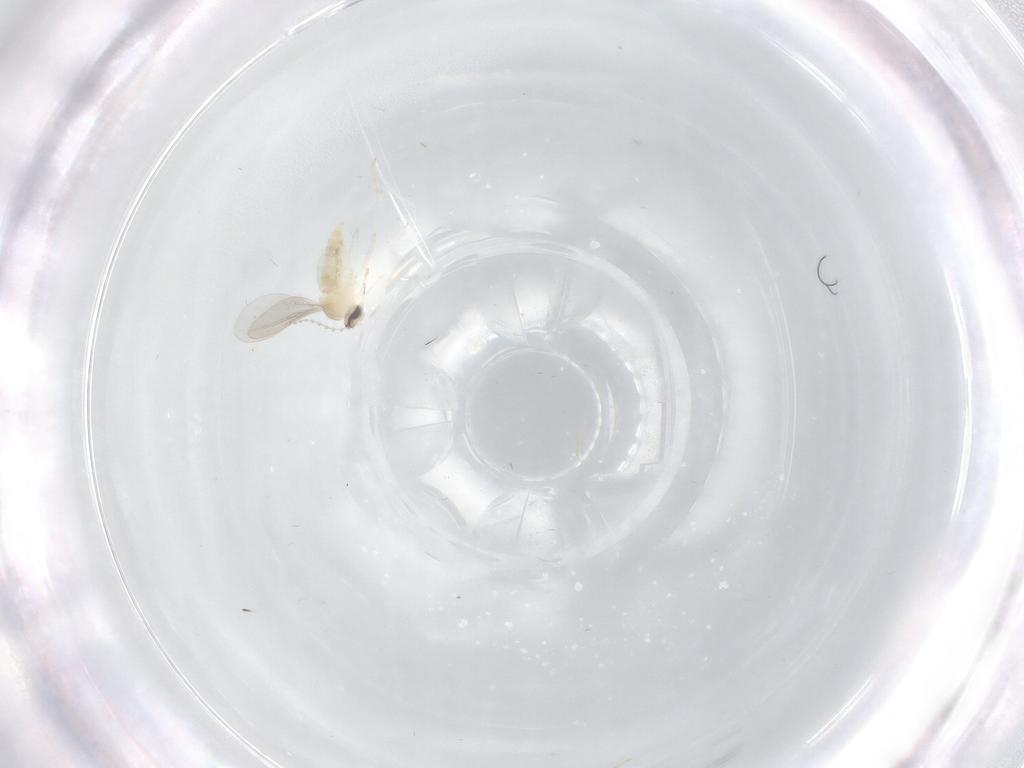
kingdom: Animalia
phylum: Arthropoda
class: Insecta
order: Diptera
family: Cecidomyiidae
